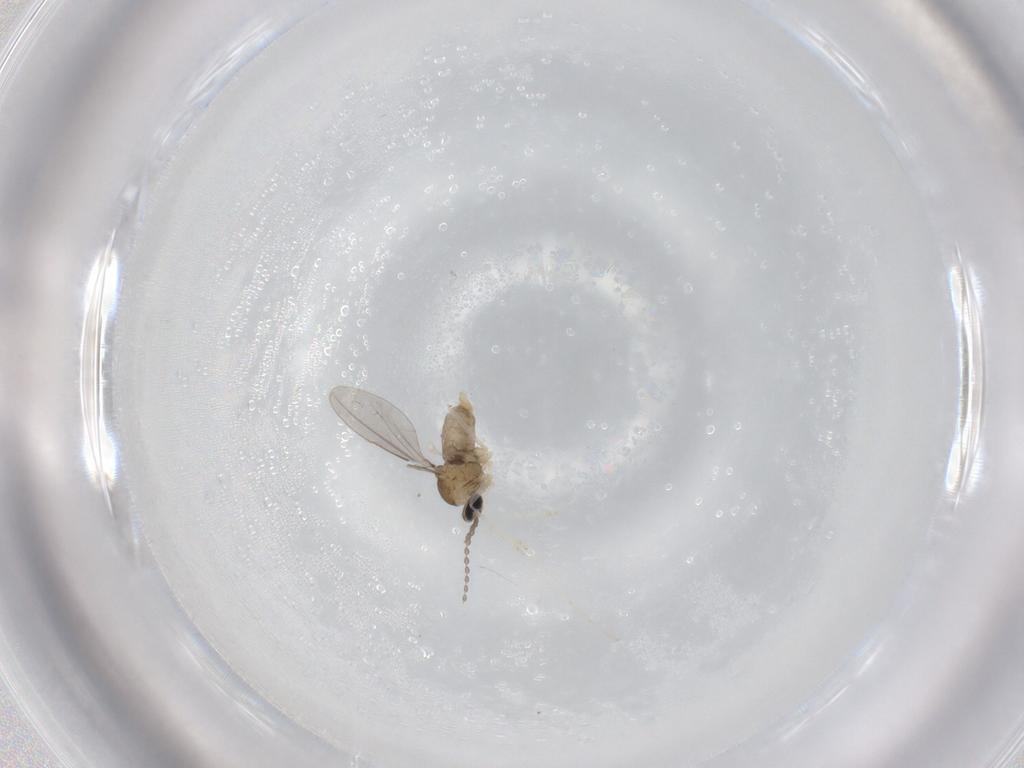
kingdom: Animalia
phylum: Arthropoda
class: Insecta
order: Diptera
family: Cecidomyiidae
